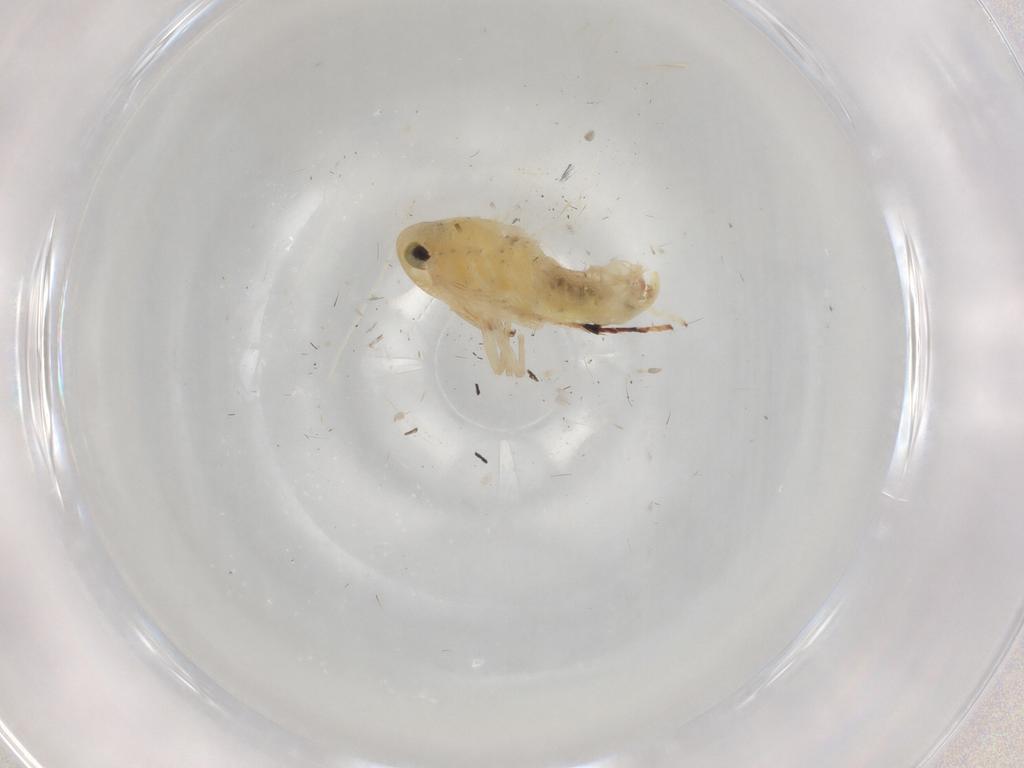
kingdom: Animalia
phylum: Arthropoda
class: Insecta
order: Hemiptera
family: Cicadellidae
